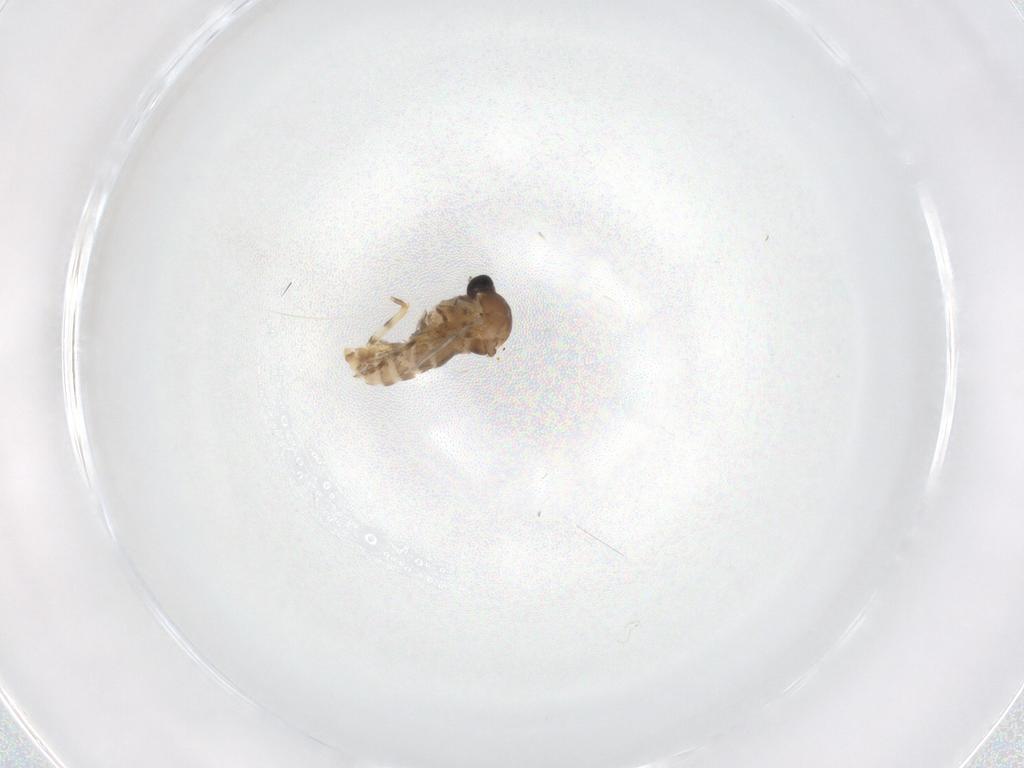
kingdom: Animalia
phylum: Arthropoda
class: Insecta
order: Diptera
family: Ceratopogonidae
